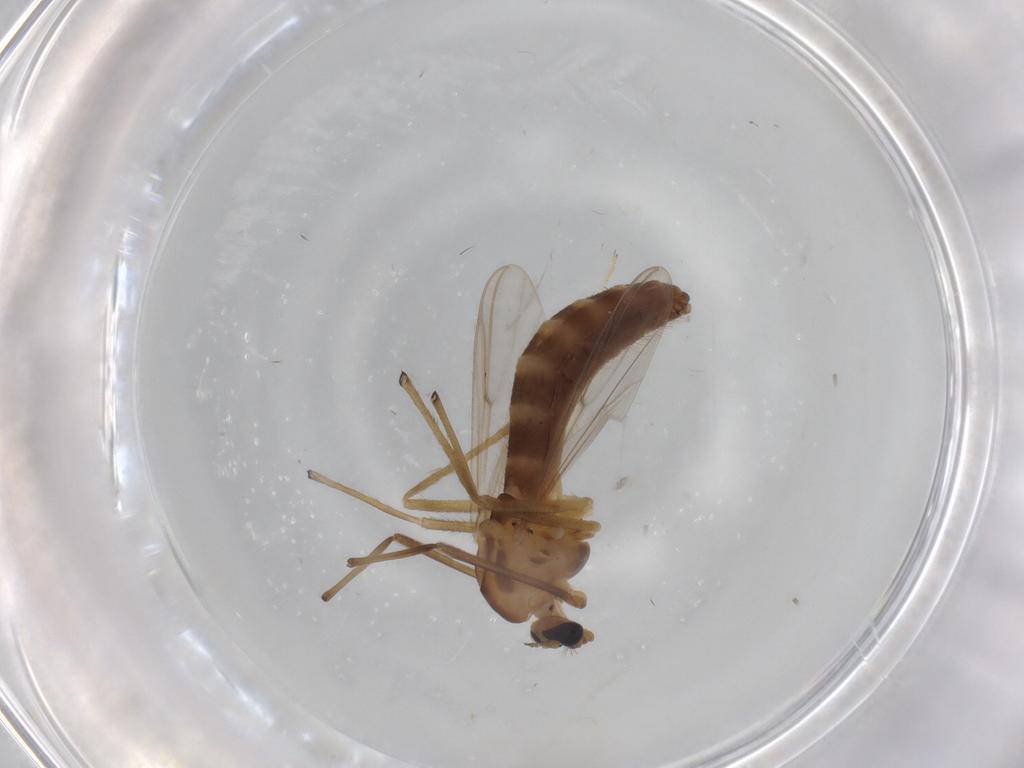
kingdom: Animalia
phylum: Arthropoda
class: Insecta
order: Diptera
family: Chironomidae
